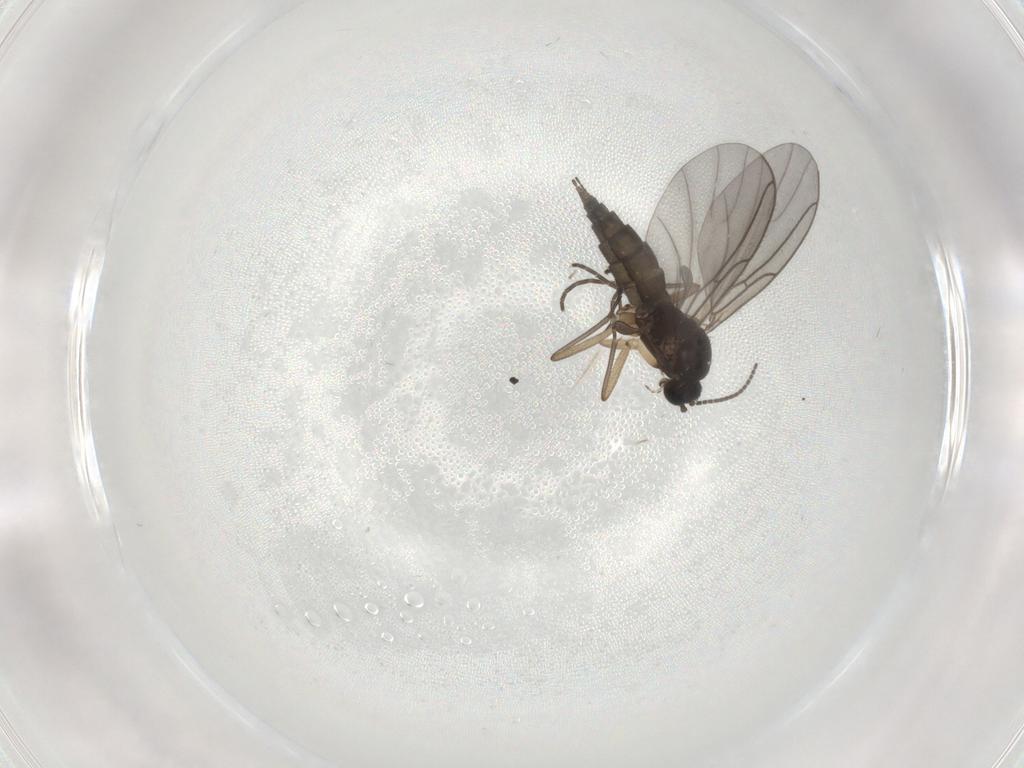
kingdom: Animalia
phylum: Arthropoda
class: Insecta
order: Diptera
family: Sciaridae
